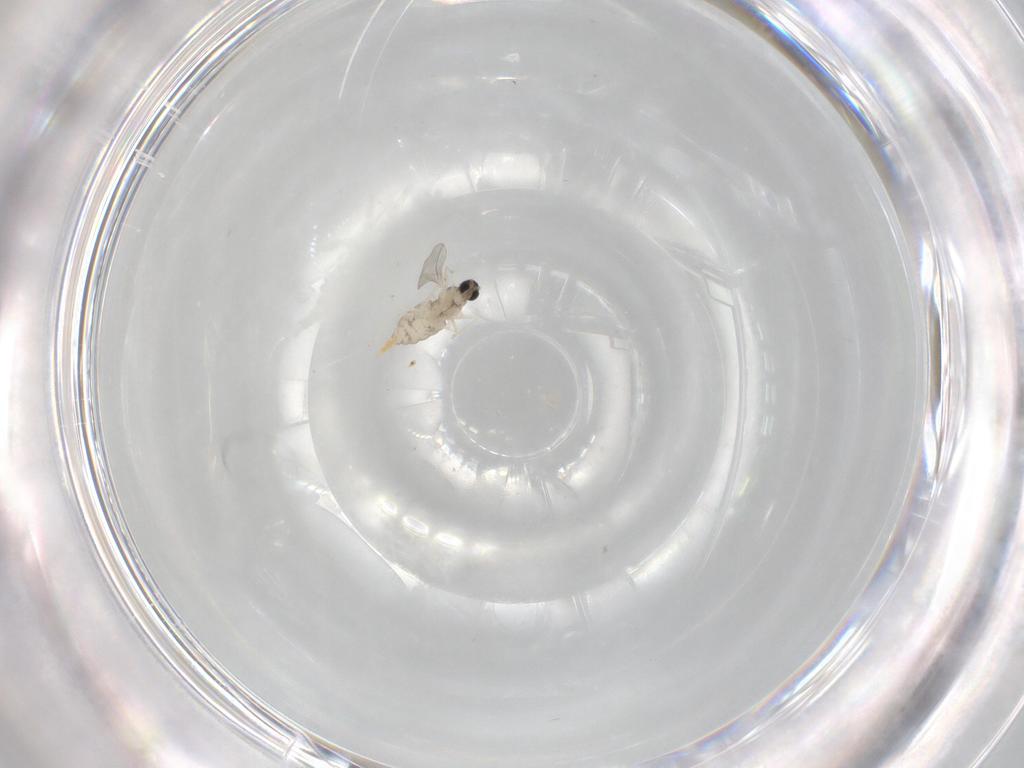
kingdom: Animalia
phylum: Arthropoda
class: Insecta
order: Diptera
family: Cecidomyiidae
